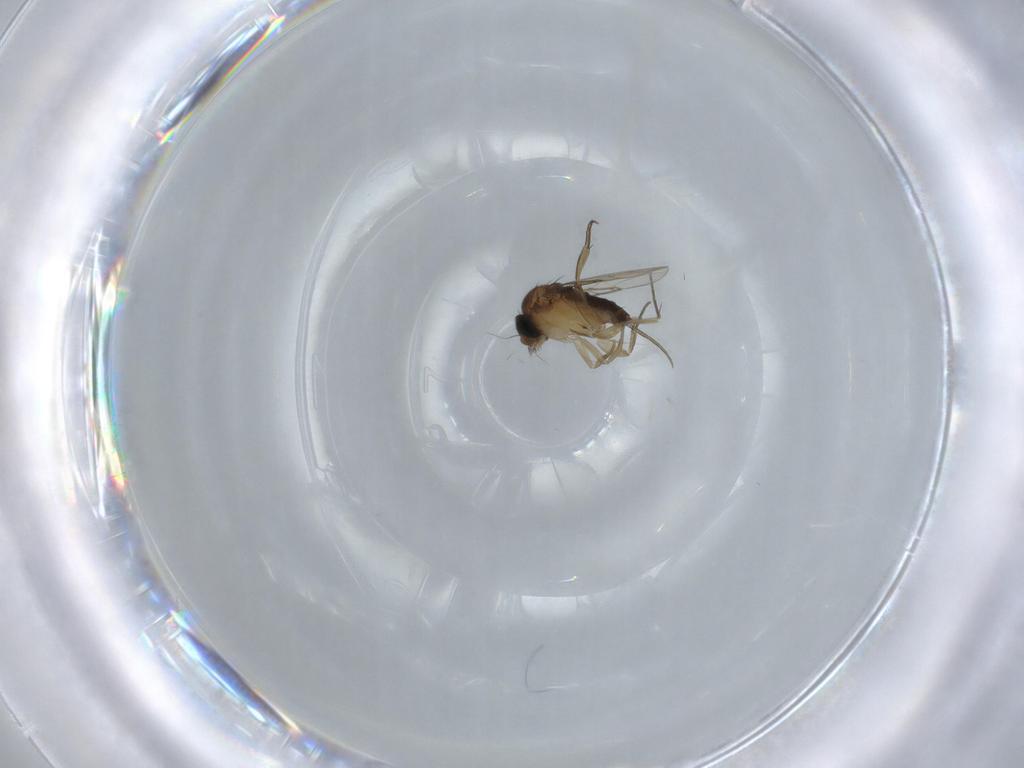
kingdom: Animalia
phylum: Arthropoda
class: Insecta
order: Diptera
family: Phoridae
